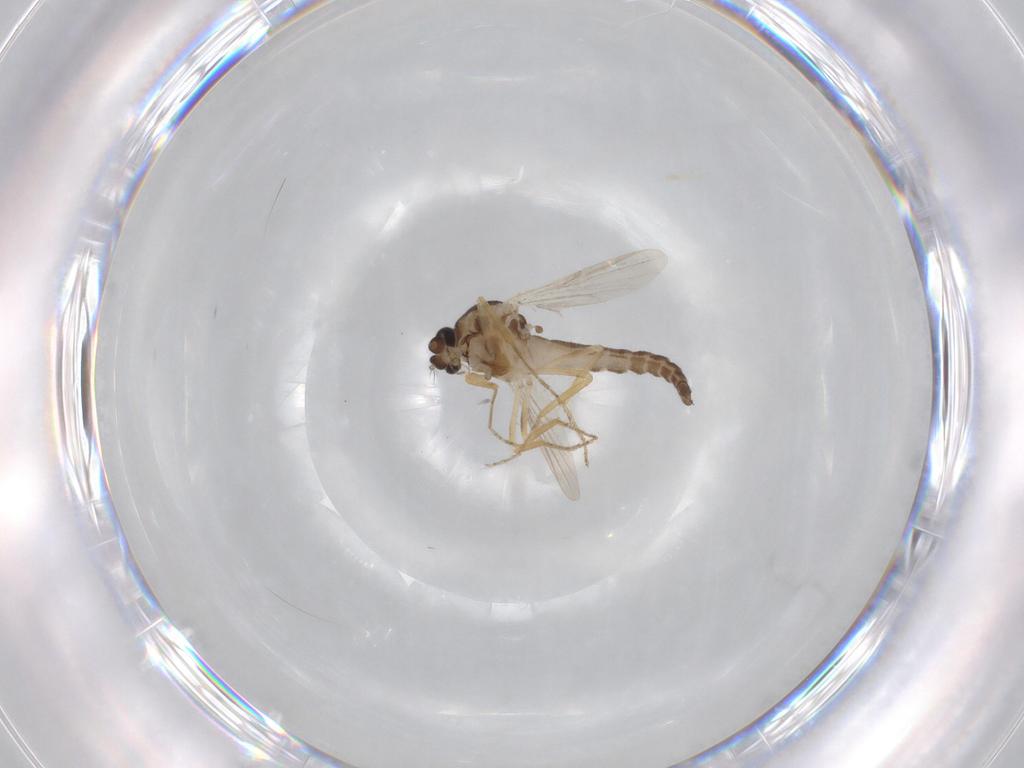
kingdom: Animalia
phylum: Arthropoda
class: Insecta
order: Diptera
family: Ceratopogonidae
